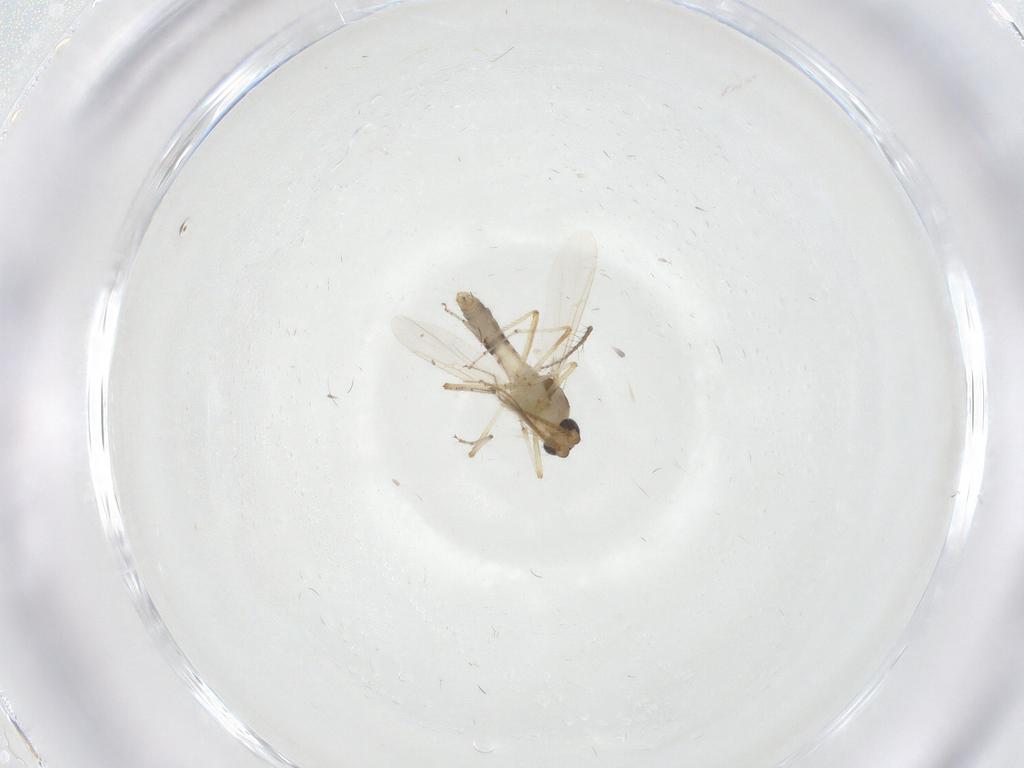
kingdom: Animalia
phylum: Arthropoda
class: Insecta
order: Diptera
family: Ceratopogonidae
